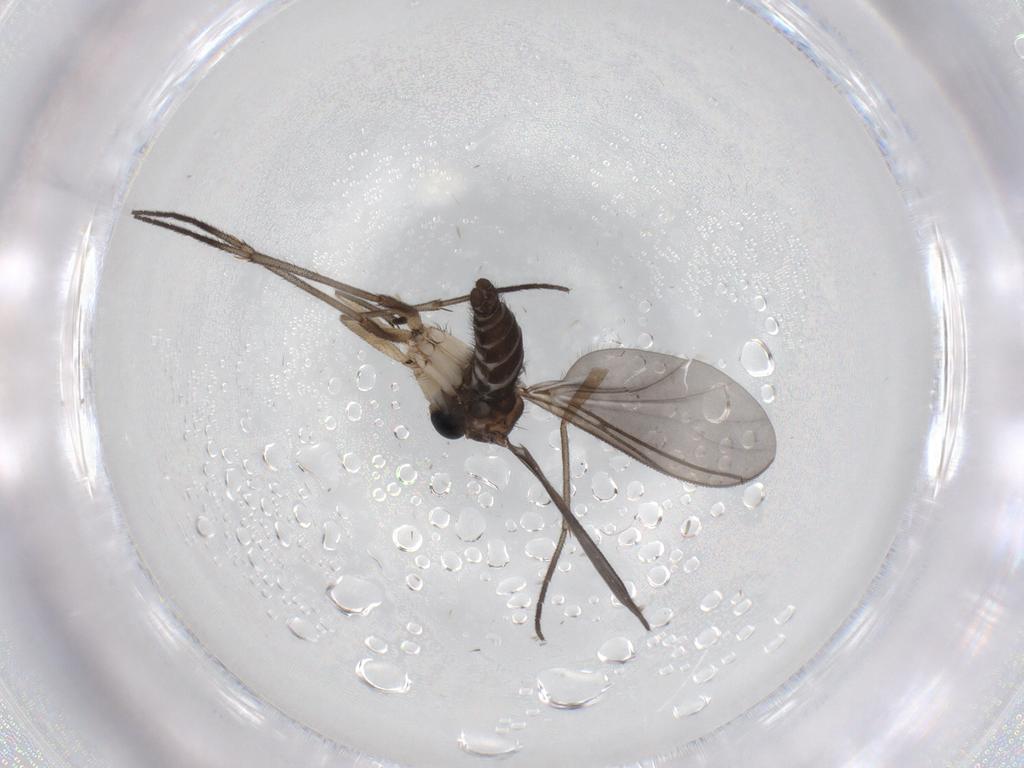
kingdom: Animalia
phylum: Arthropoda
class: Insecta
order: Diptera
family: Sciaridae
